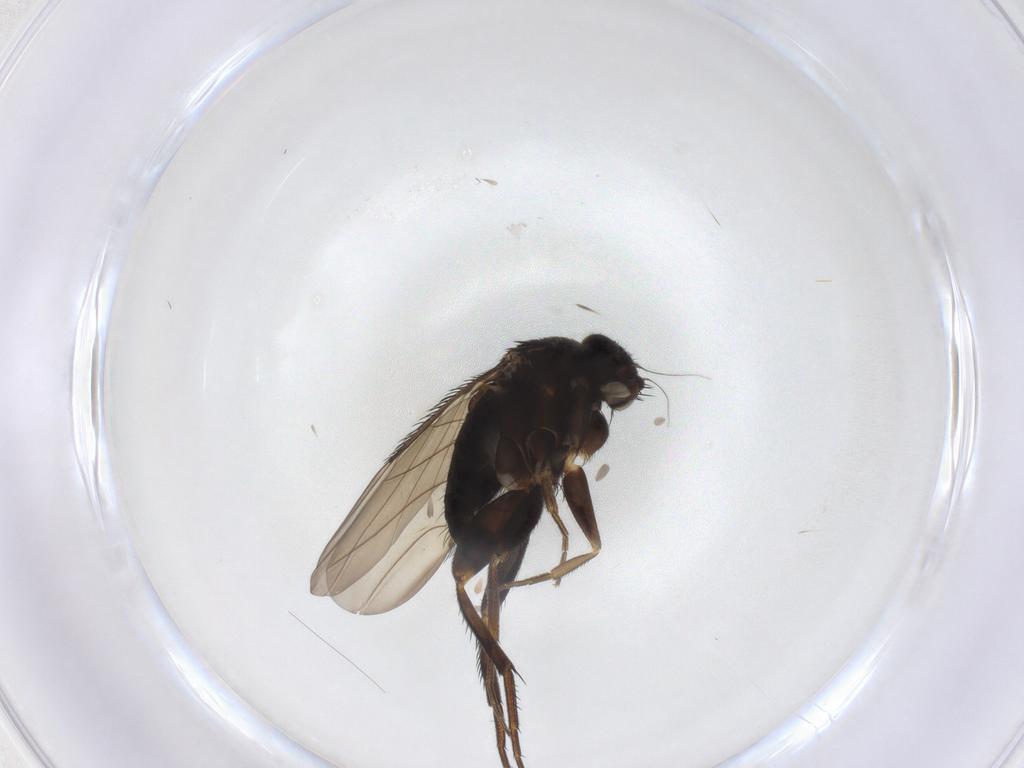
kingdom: Animalia
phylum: Arthropoda
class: Insecta
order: Diptera
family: Phoridae
